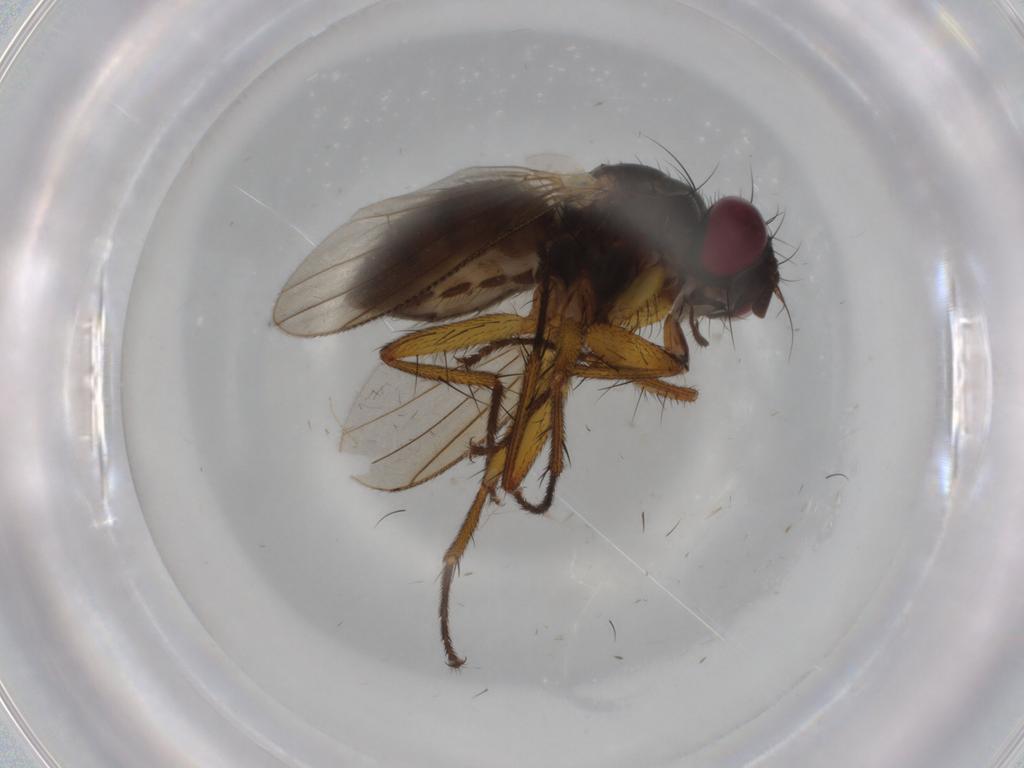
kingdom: Animalia
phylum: Arthropoda
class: Insecta
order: Diptera
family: Muscidae
